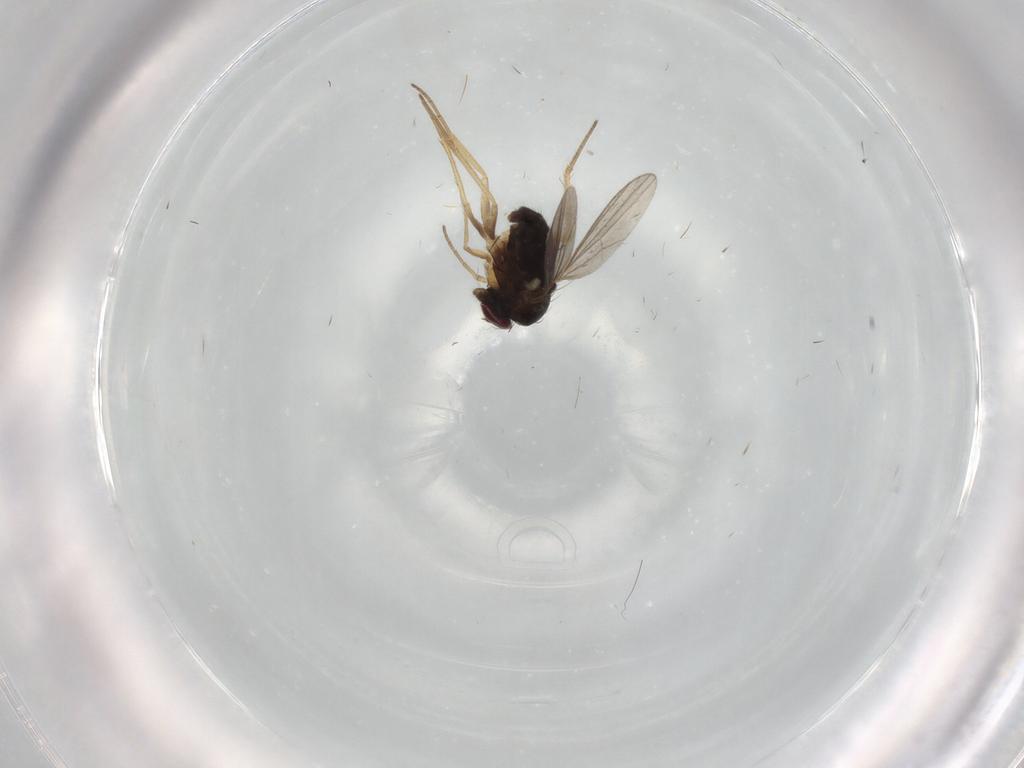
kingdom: Animalia
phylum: Arthropoda
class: Insecta
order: Diptera
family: Dolichopodidae
